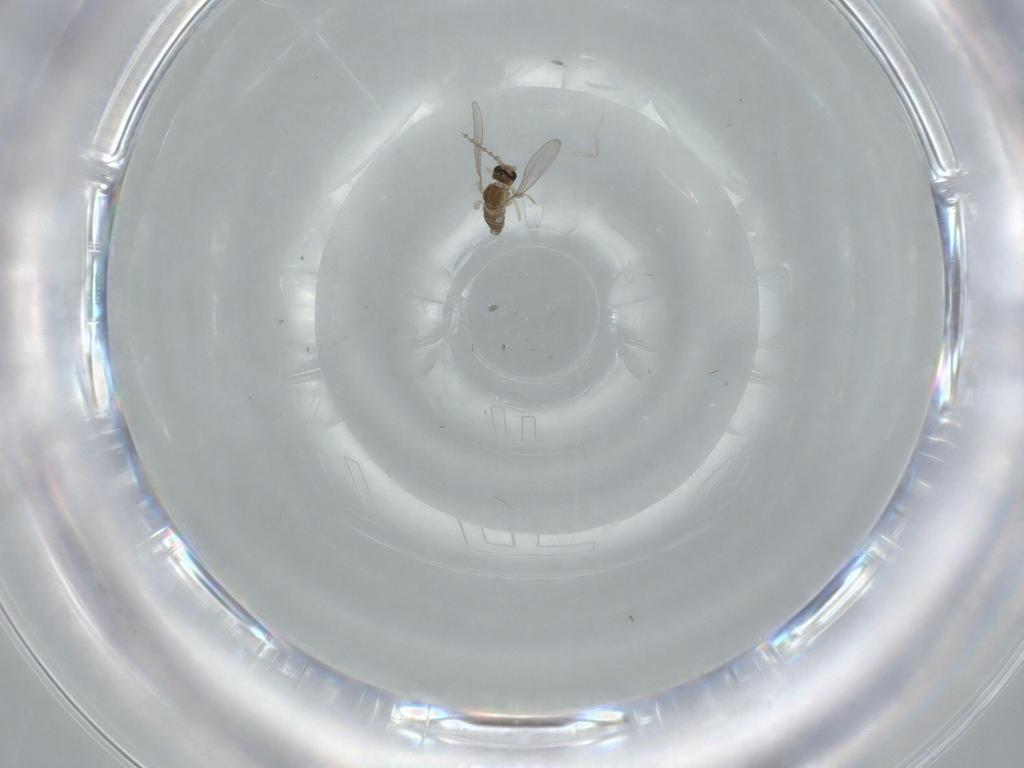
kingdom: Animalia
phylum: Arthropoda
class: Insecta
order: Diptera
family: Cecidomyiidae
